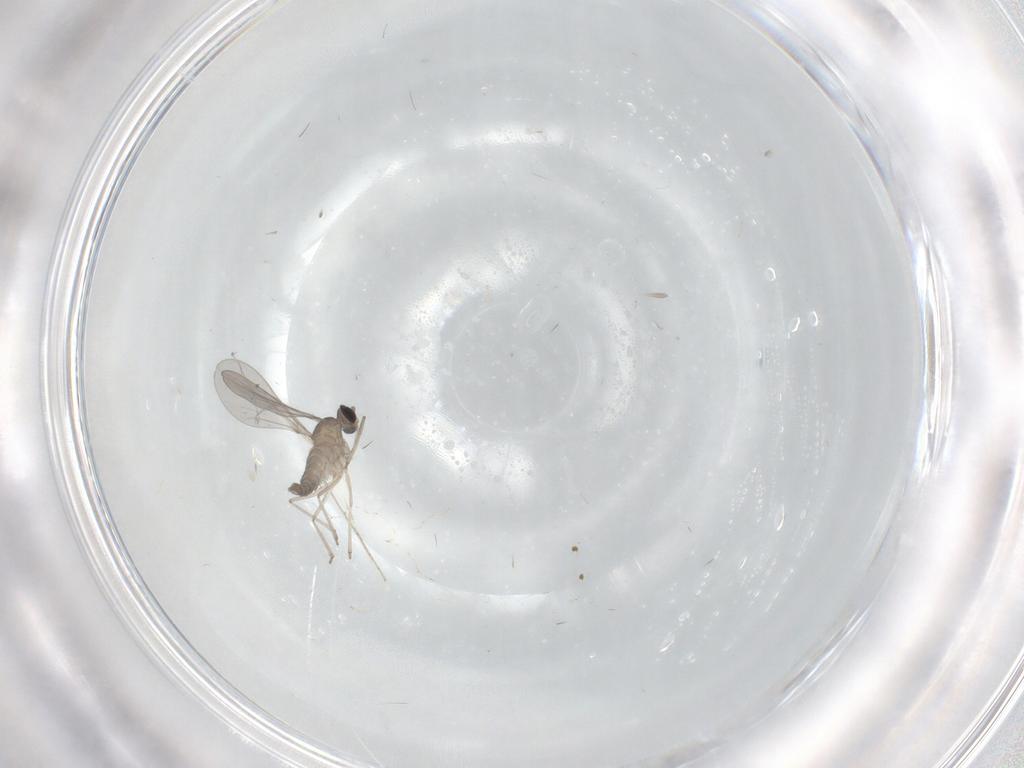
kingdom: Animalia
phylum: Arthropoda
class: Insecta
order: Diptera
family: Cecidomyiidae
